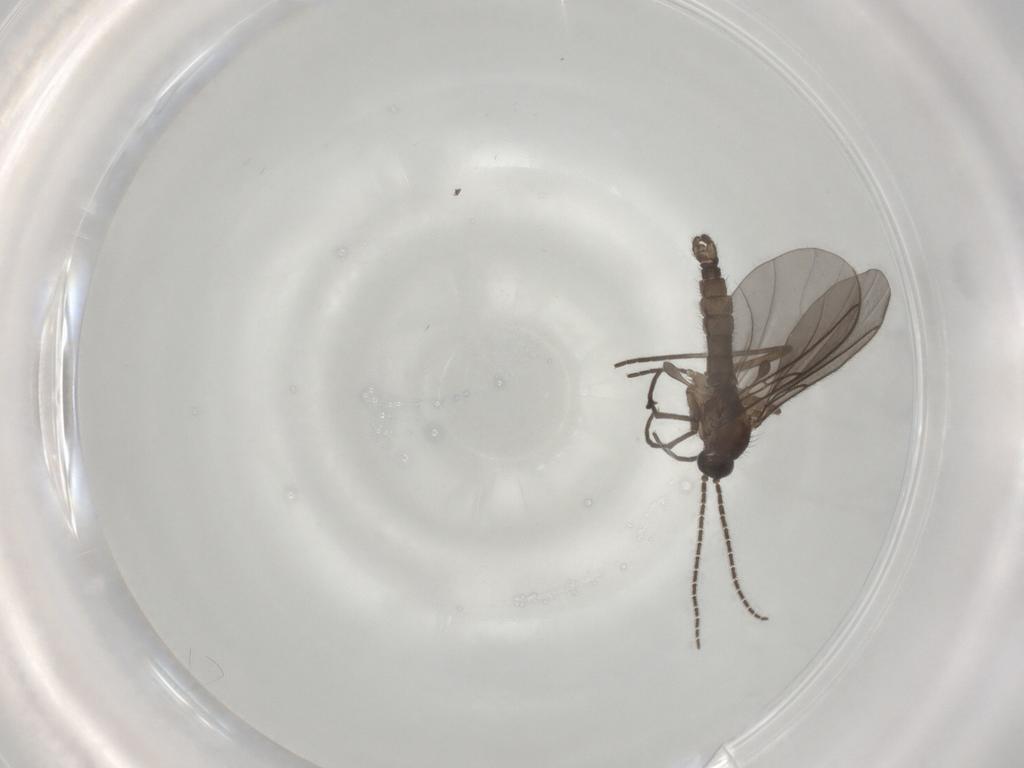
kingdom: Animalia
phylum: Arthropoda
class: Insecta
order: Diptera
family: Sciaridae
